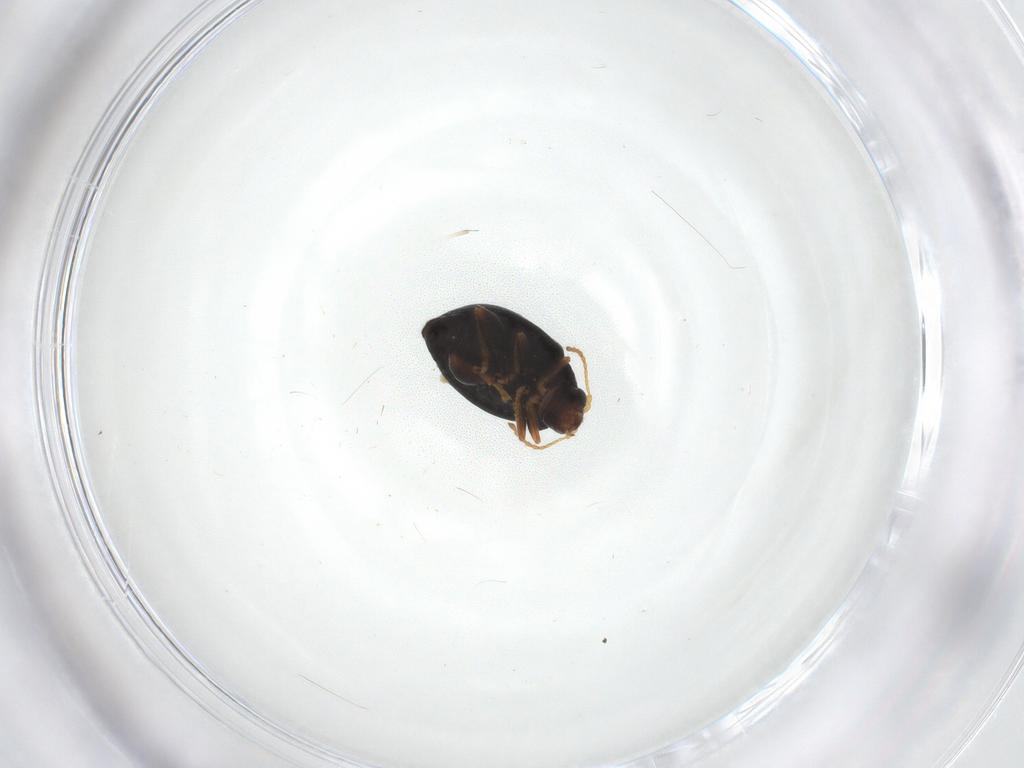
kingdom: Animalia
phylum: Arthropoda
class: Insecta
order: Coleoptera
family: Chrysomelidae
